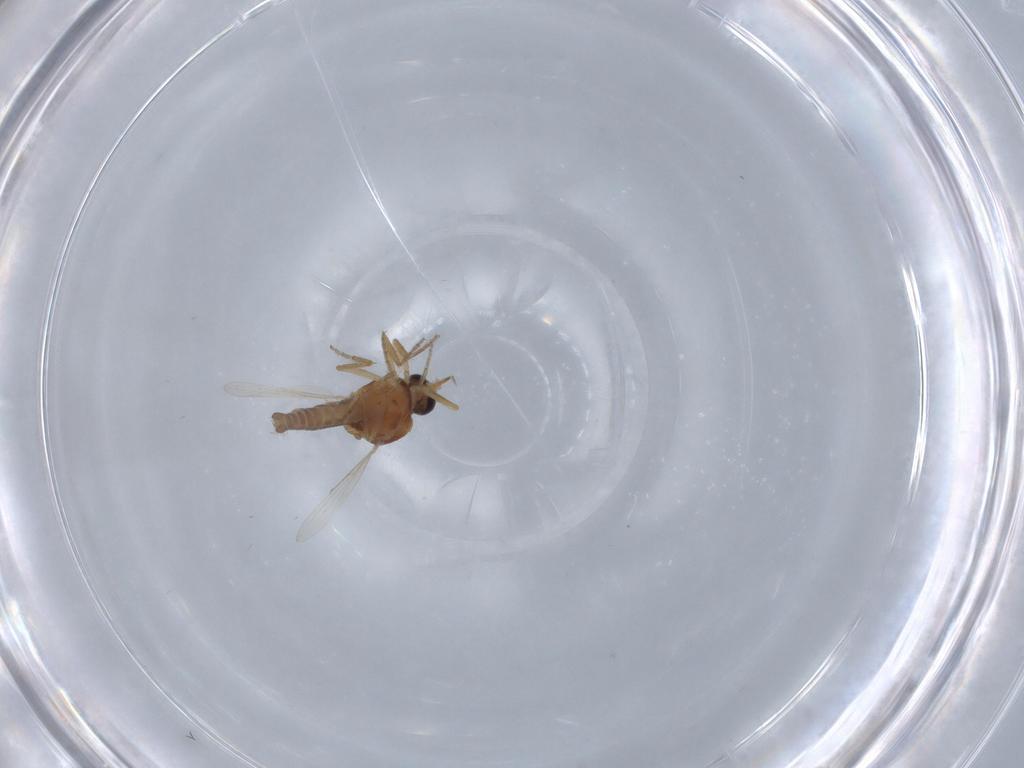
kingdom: Animalia
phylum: Arthropoda
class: Insecta
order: Diptera
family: Ceratopogonidae
